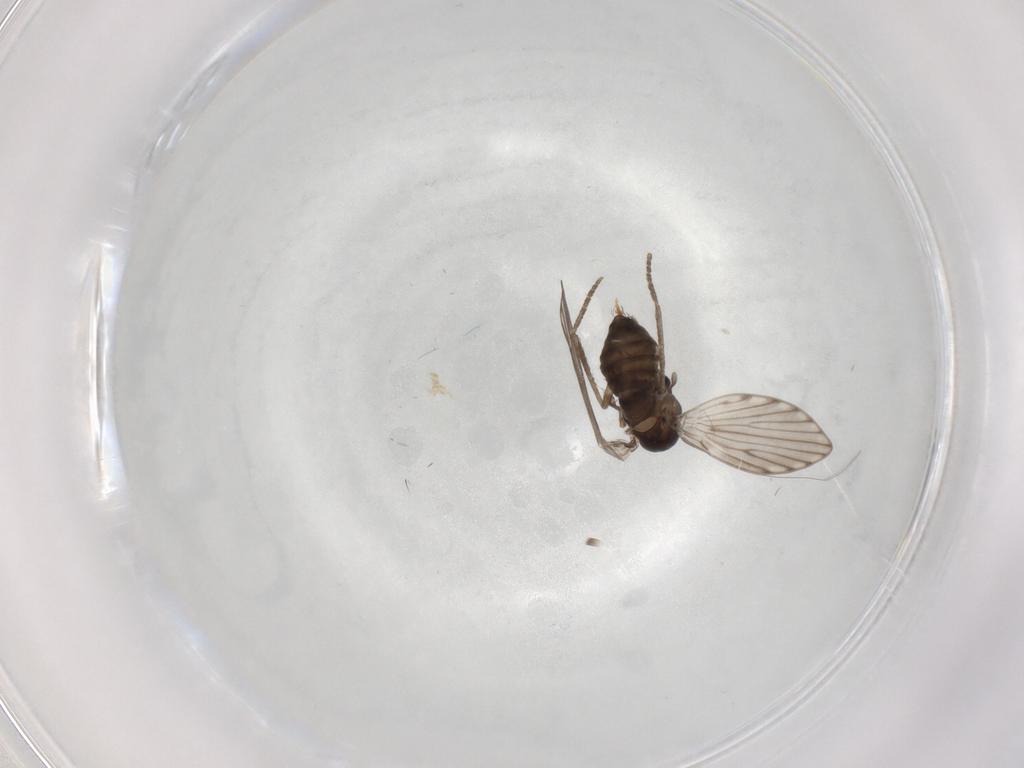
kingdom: Animalia
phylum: Arthropoda
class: Insecta
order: Diptera
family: Psychodidae
